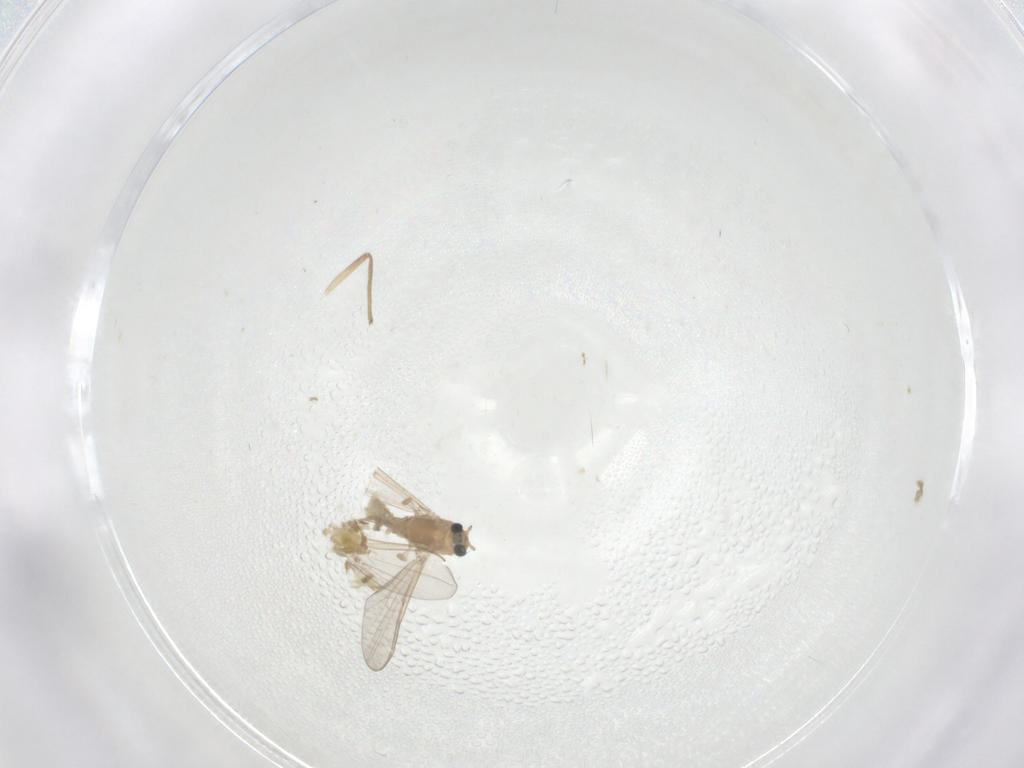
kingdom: Animalia
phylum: Arthropoda
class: Insecta
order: Diptera
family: Chironomidae
